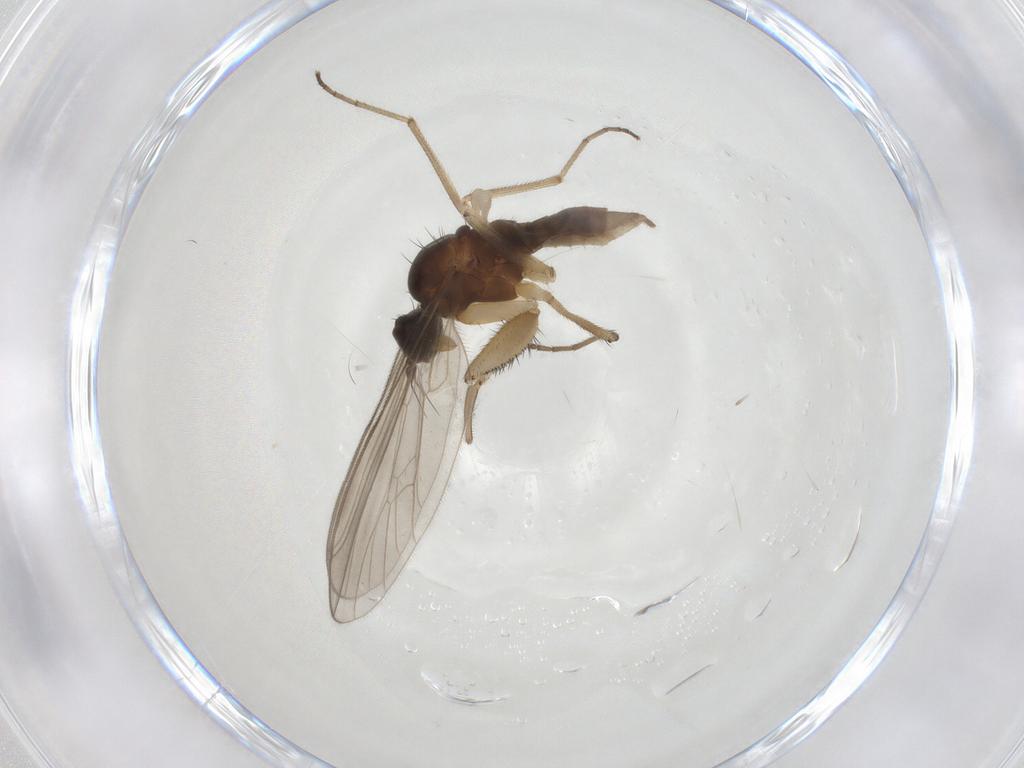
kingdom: Animalia
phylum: Arthropoda
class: Insecta
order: Diptera
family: Empididae
